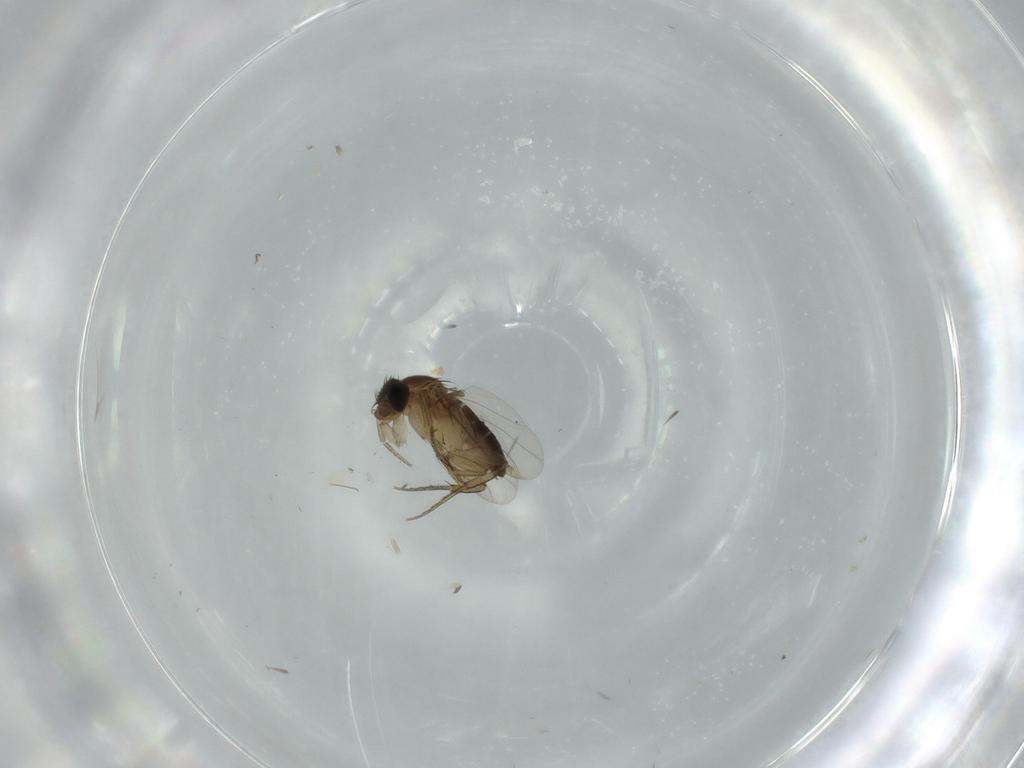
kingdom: Animalia
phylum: Arthropoda
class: Insecta
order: Diptera
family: Phoridae
